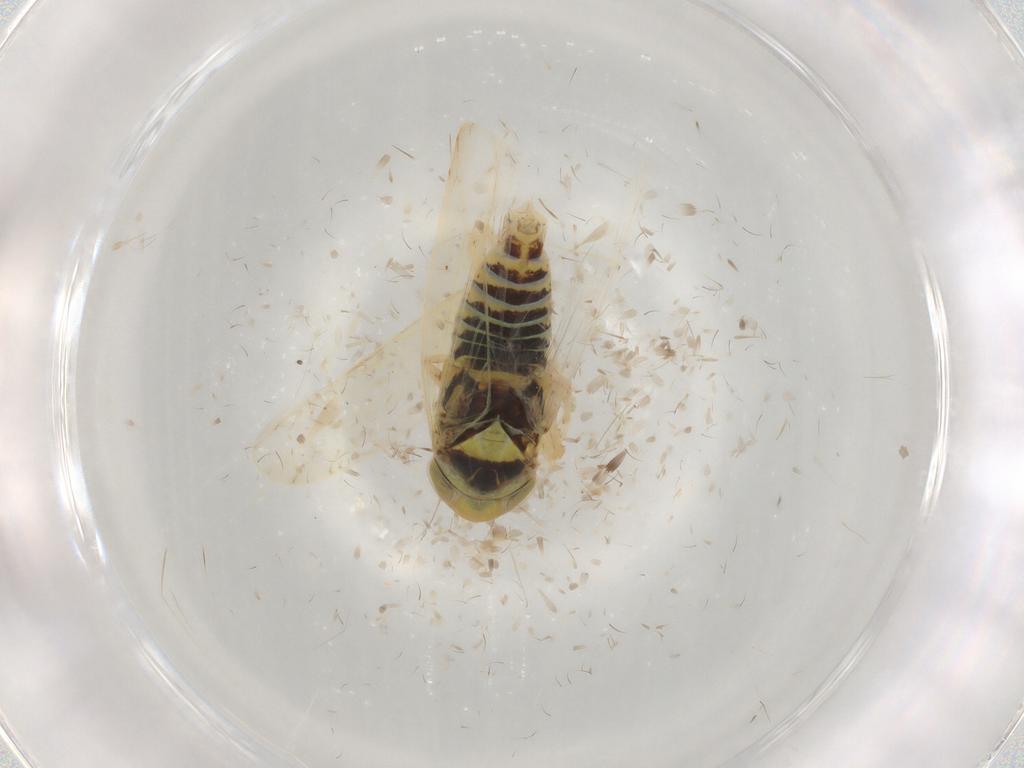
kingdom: Animalia
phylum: Arthropoda
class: Insecta
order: Hemiptera
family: Cicadellidae
